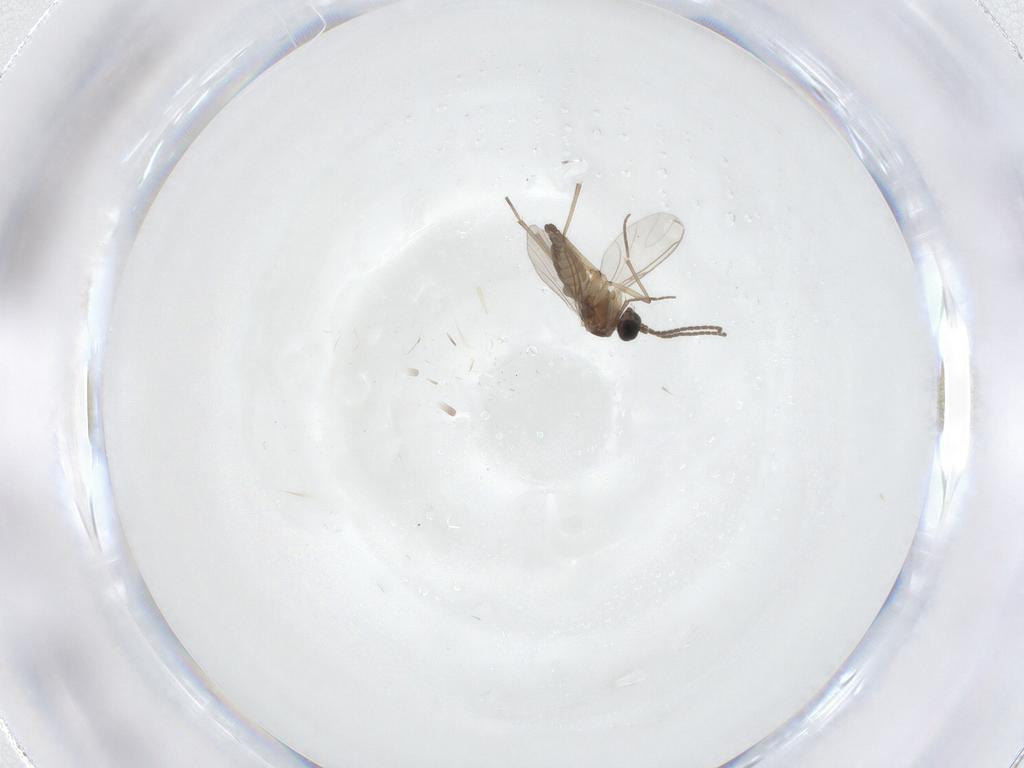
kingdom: Animalia
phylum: Arthropoda
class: Insecta
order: Diptera
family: Sciaridae
